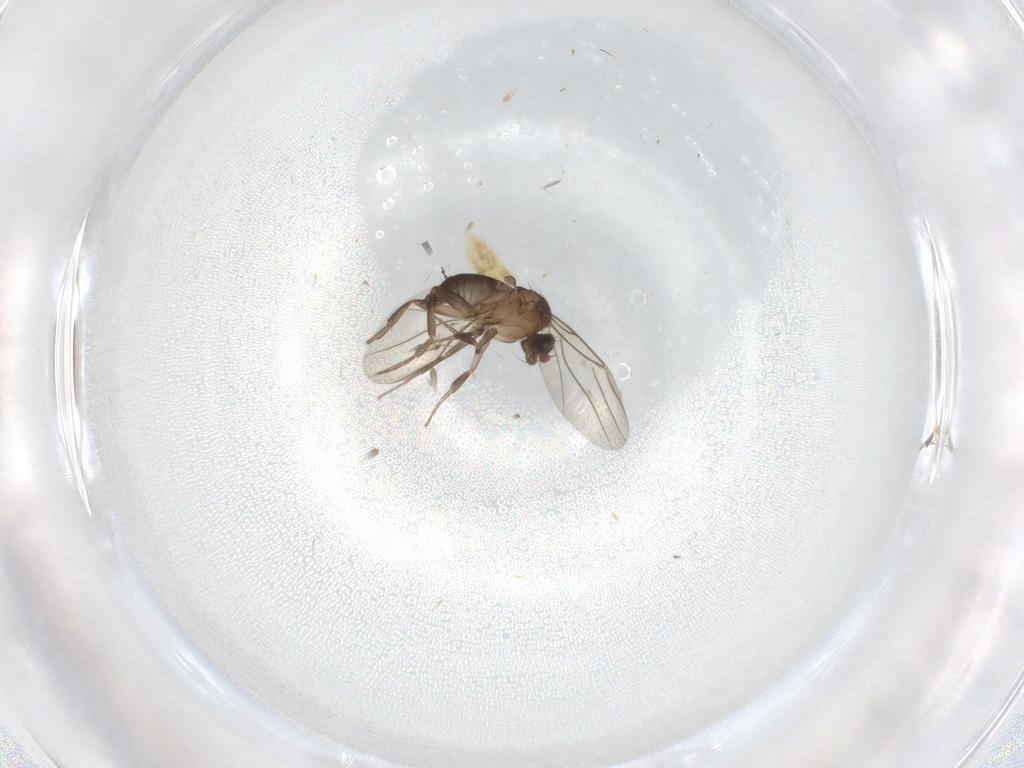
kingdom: Animalia
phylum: Arthropoda
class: Insecta
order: Diptera
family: Phoridae
